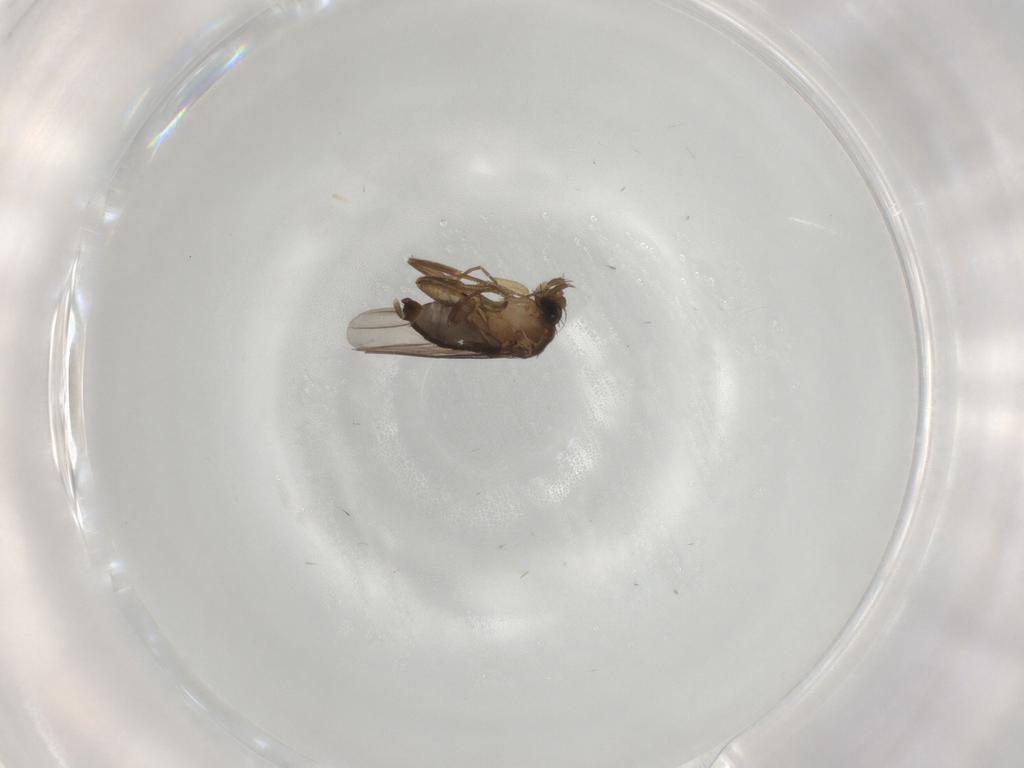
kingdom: Animalia
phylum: Arthropoda
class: Insecta
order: Diptera
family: Phoridae
